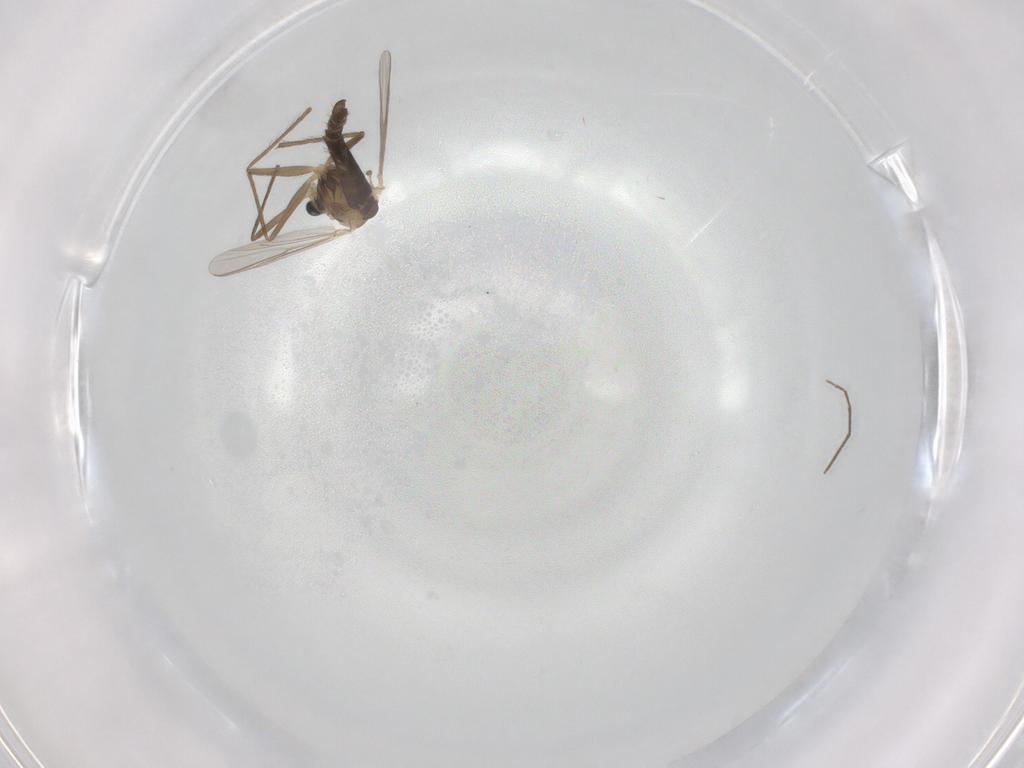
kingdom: Animalia
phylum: Arthropoda
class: Insecta
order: Diptera
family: Chironomidae
